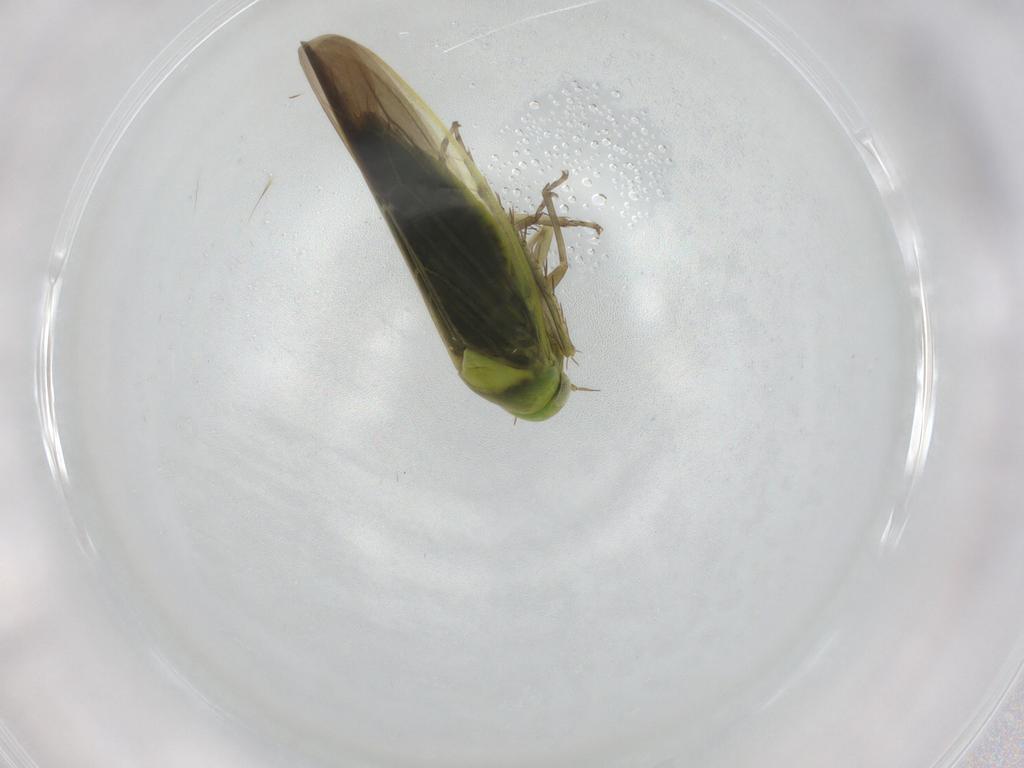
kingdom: Animalia
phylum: Arthropoda
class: Insecta
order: Hemiptera
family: Cicadellidae
